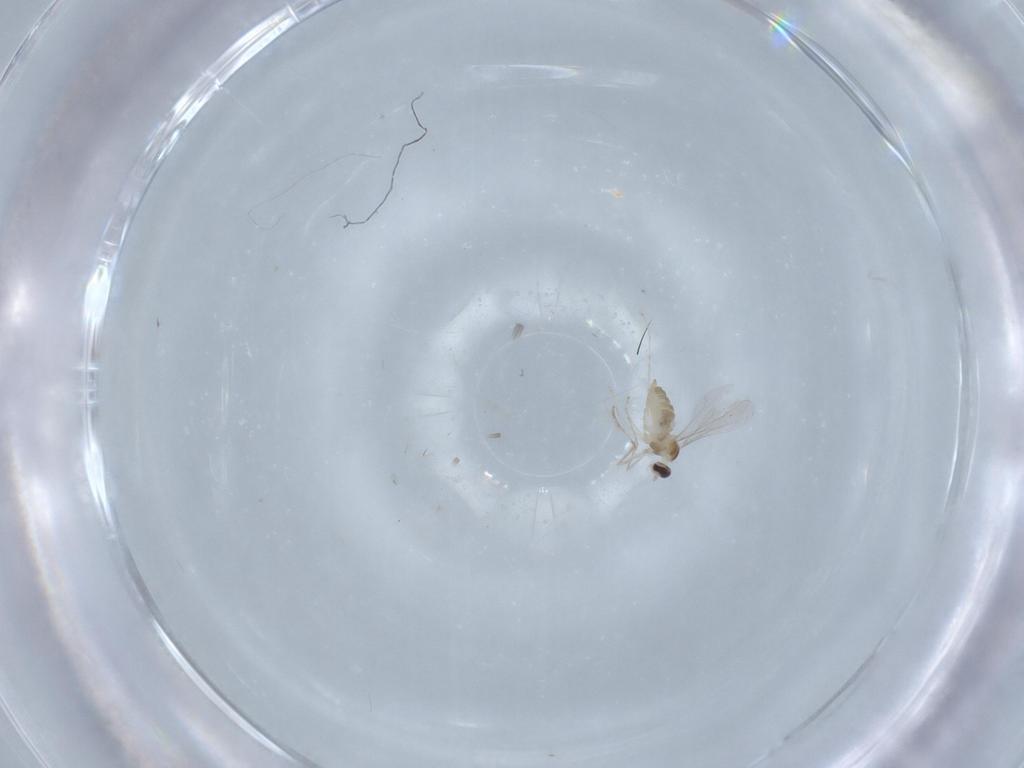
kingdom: Animalia
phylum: Arthropoda
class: Insecta
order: Diptera
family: Cecidomyiidae
